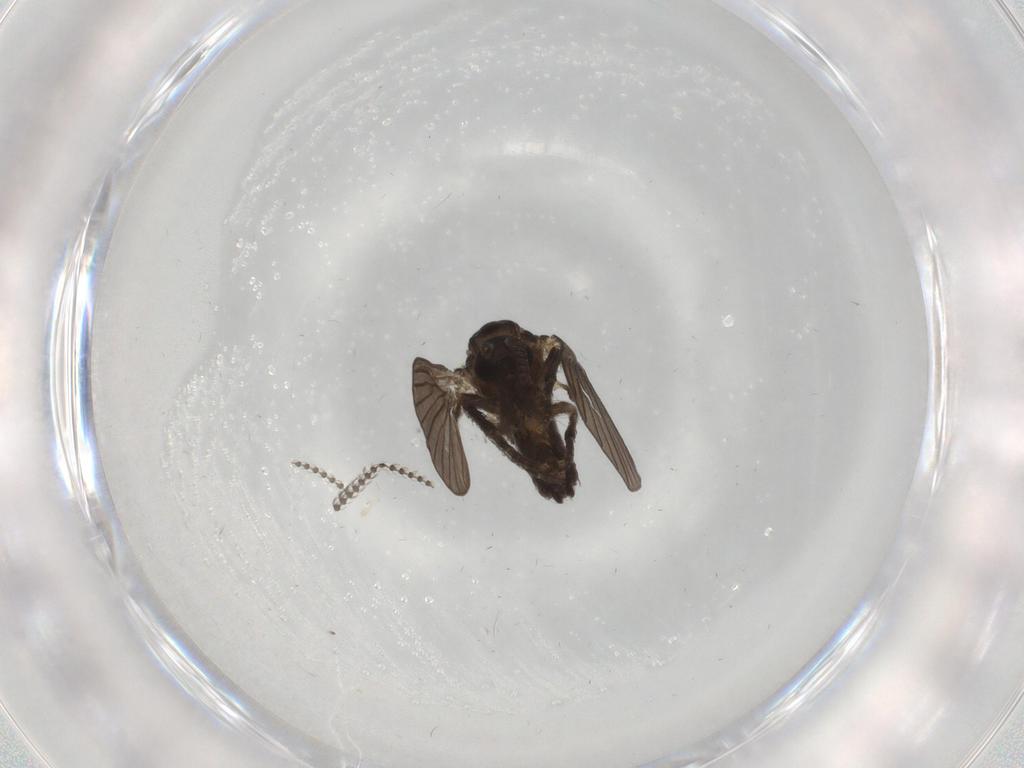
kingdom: Animalia
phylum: Arthropoda
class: Insecta
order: Diptera
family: Psychodidae
